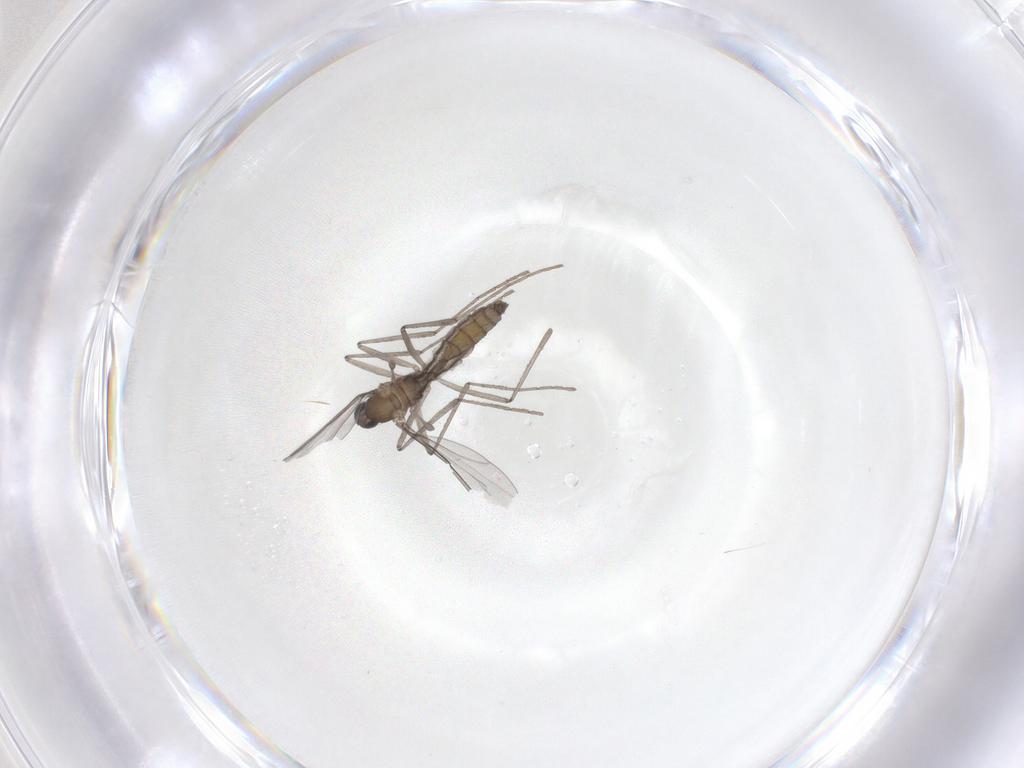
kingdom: Animalia
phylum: Arthropoda
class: Insecta
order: Diptera
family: Cecidomyiidae
